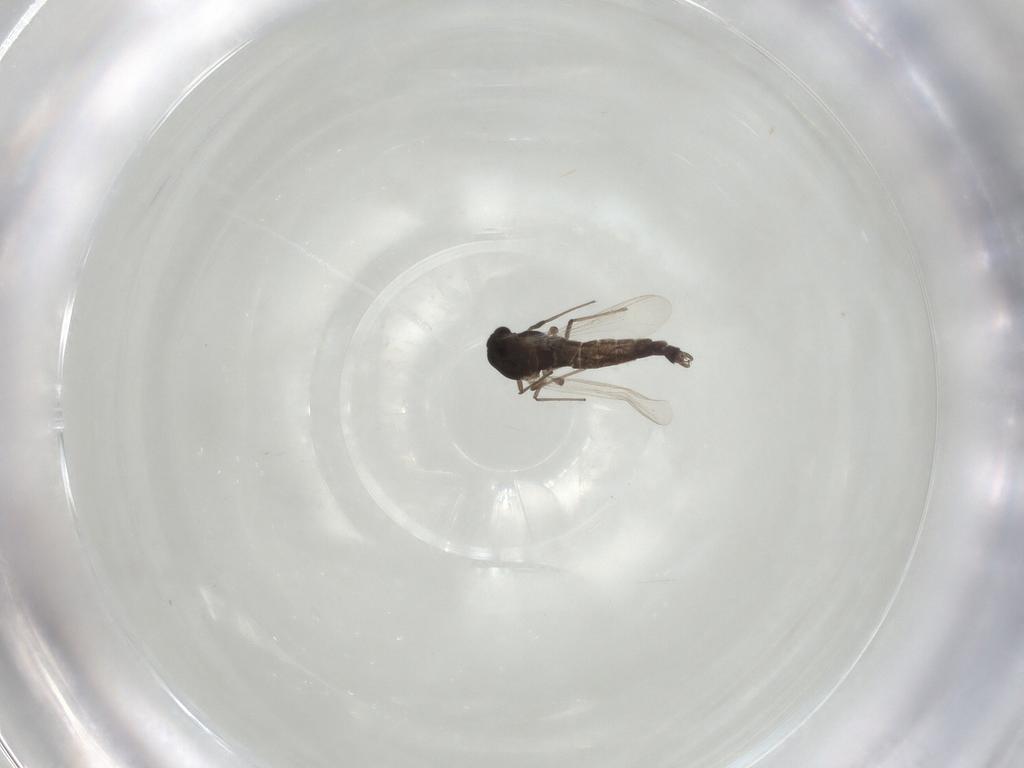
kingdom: Animalia
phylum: Arthropoda
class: Insecta
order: Diptera
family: Chironomidae
